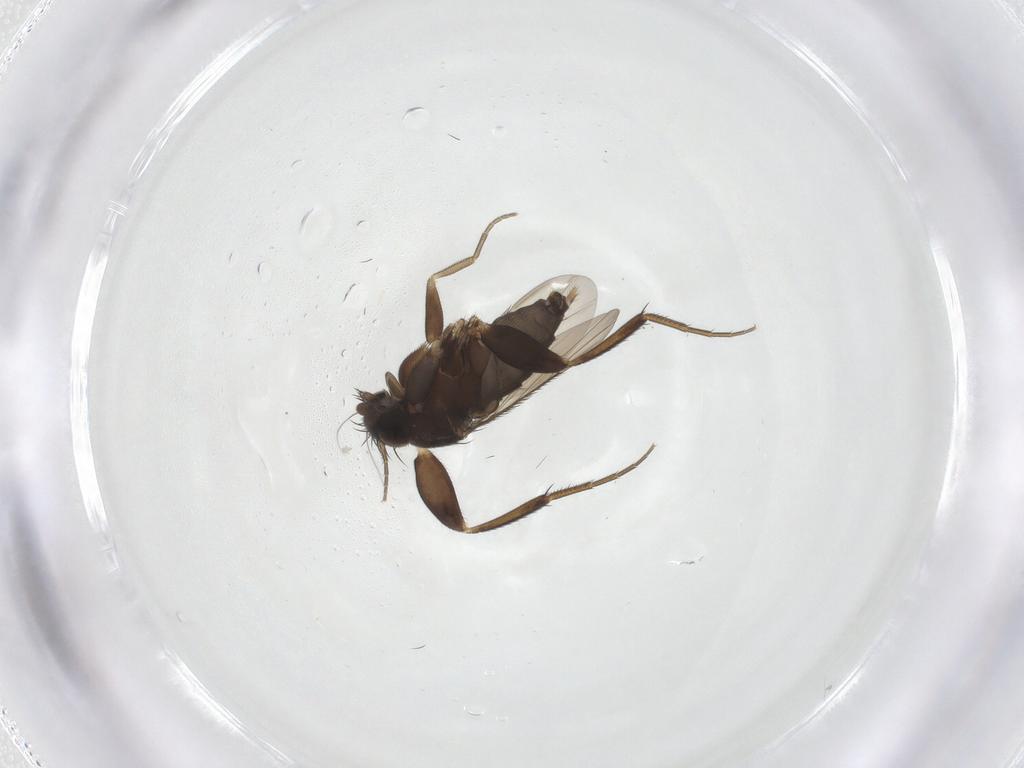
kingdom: Animalia
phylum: Arthropoda
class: Insecta
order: Diptera
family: Phoridae
